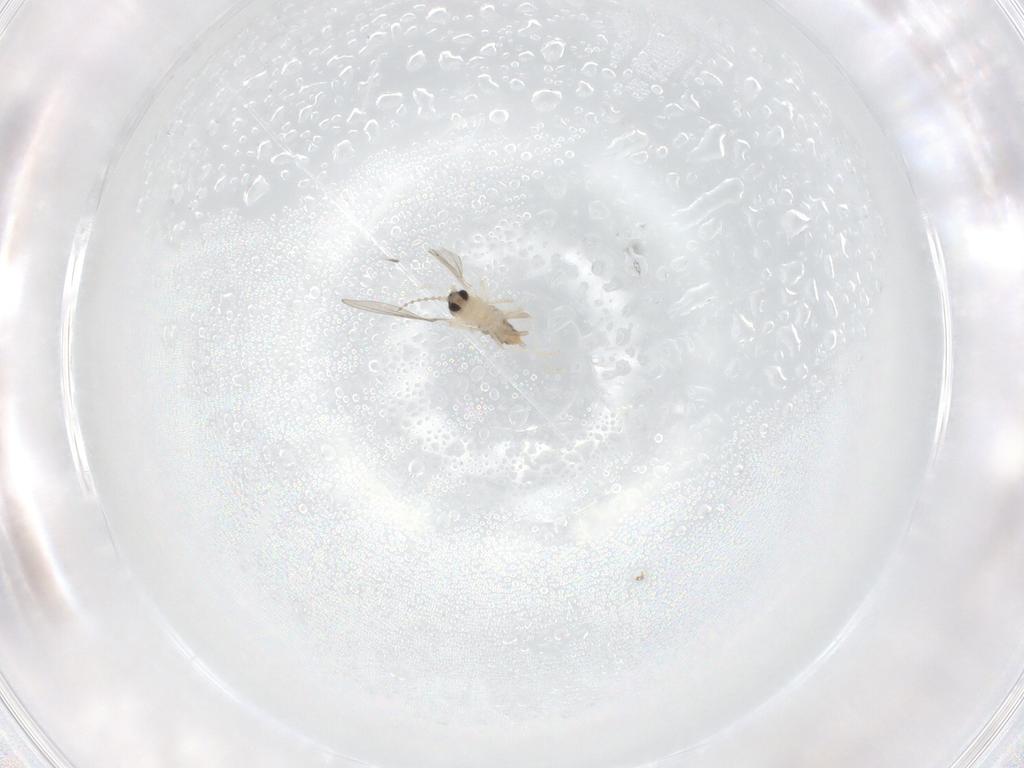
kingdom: Animalia
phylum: Arthropoda
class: Insecta
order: Diptera
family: Cecidomyiidae
